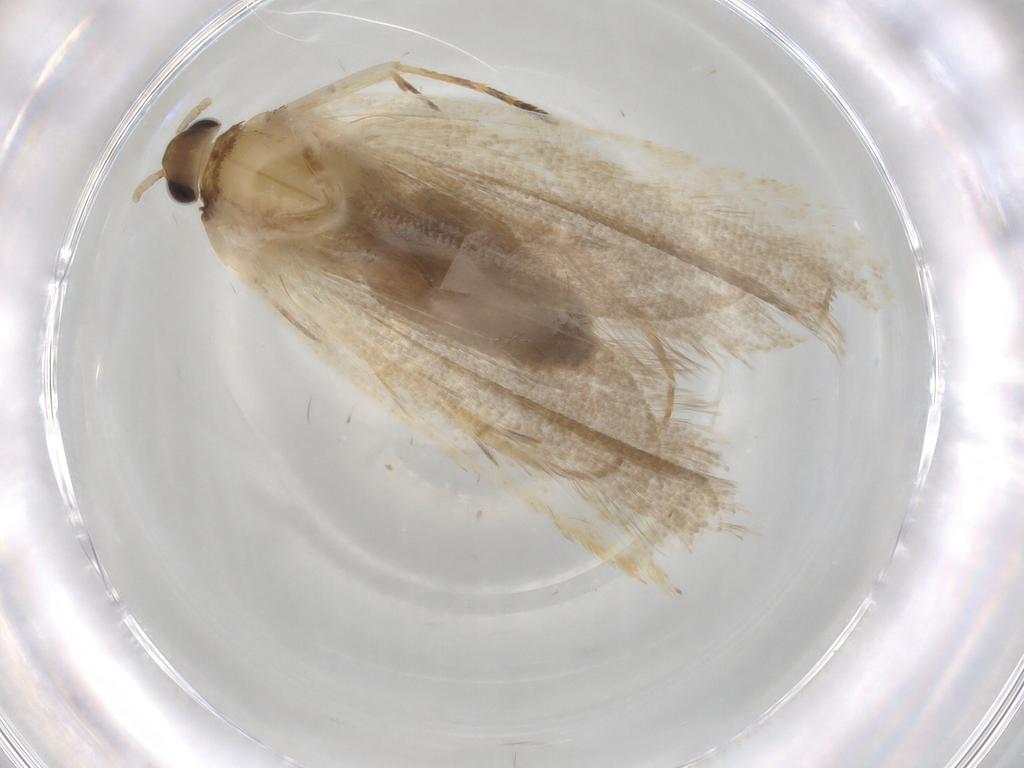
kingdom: Animalia
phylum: Arthropoda
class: Insecta
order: Lepidoptera
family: Lecithoceridae
